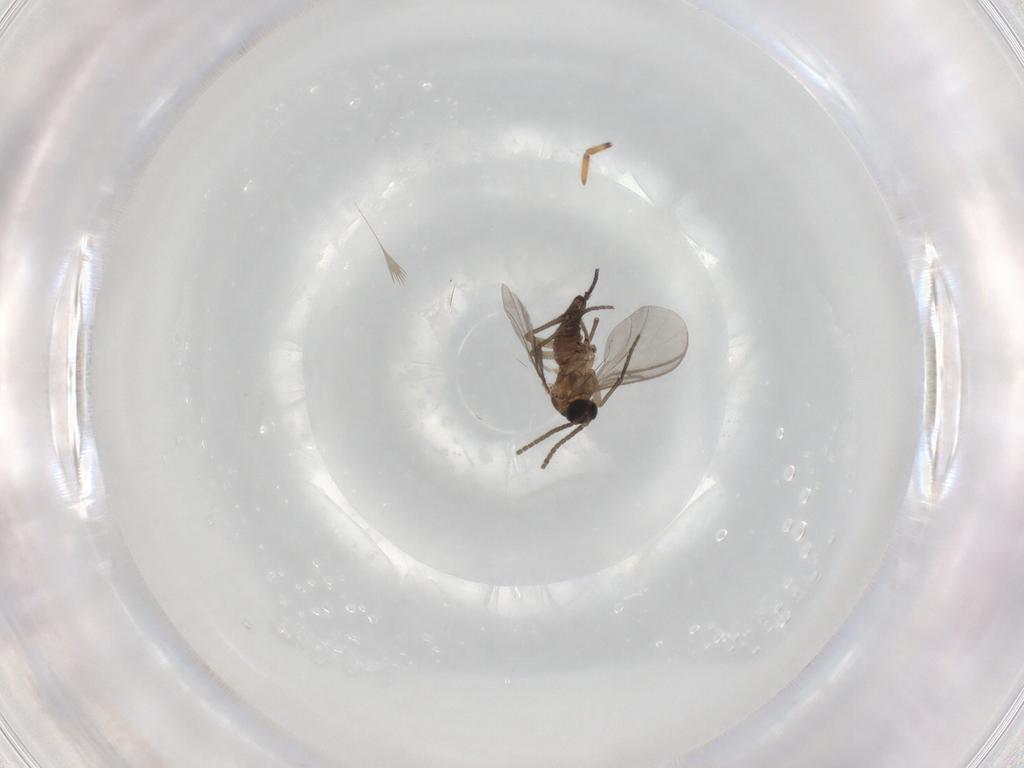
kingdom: Animalia
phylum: Arthropoda
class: Insecta
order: Diptera
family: Sciaridae
